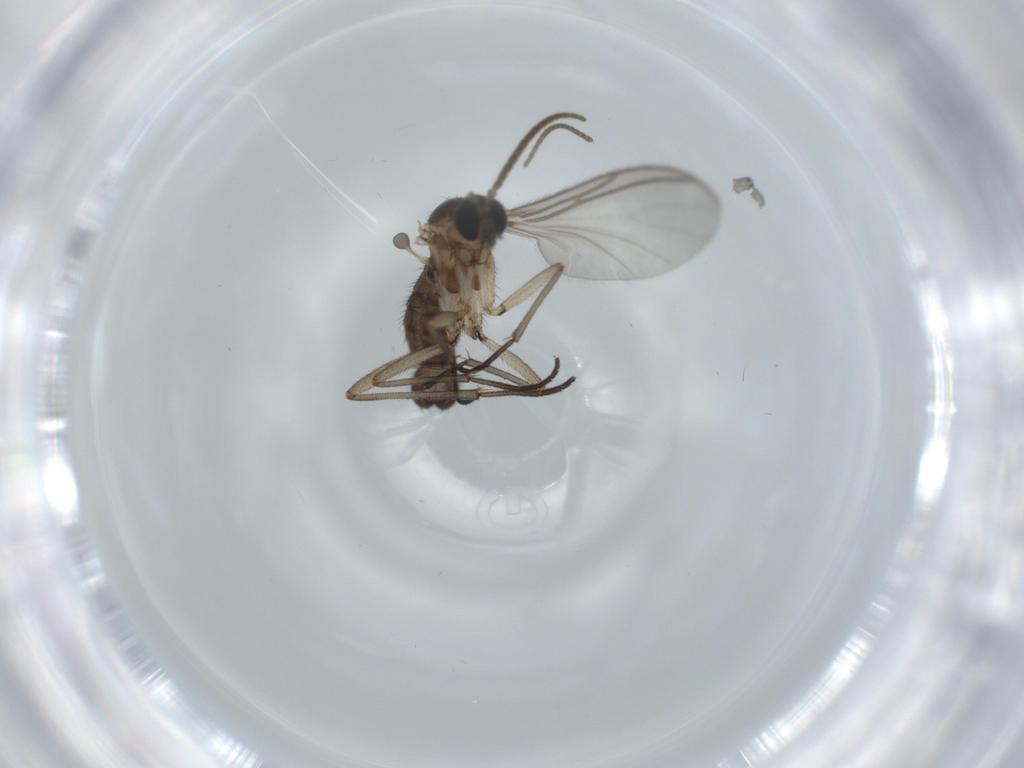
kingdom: Animalia
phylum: Arthropoda
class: Insecta
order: Diptera
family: Sciaridae
